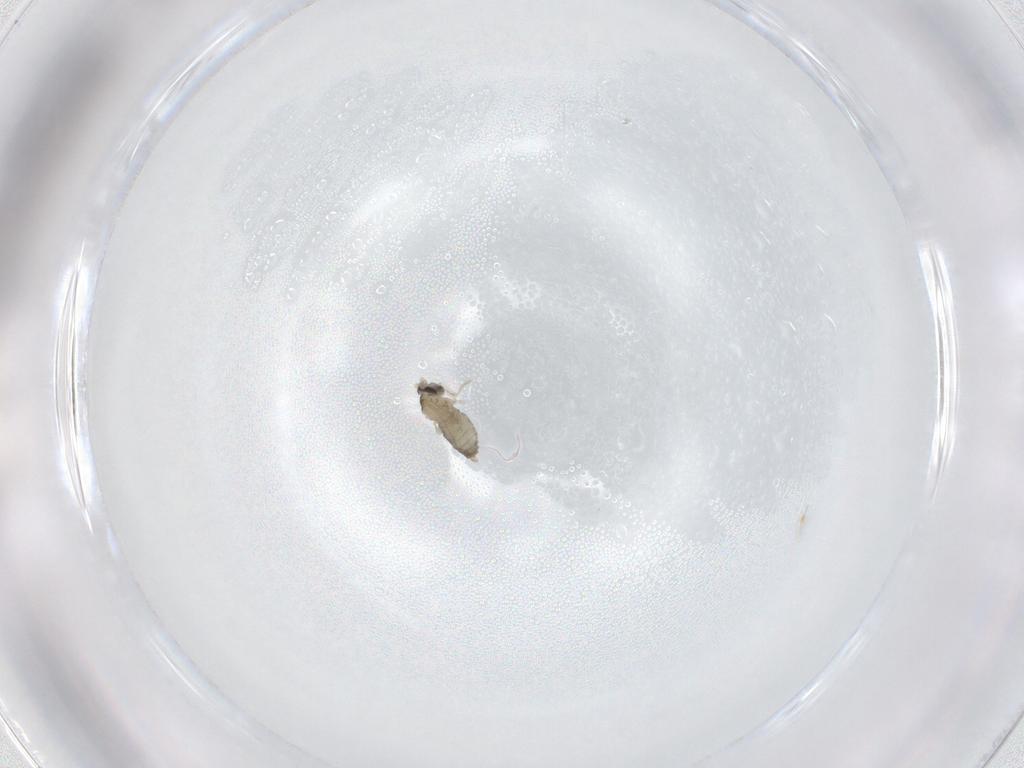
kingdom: Animalia
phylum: Arthropoda
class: Insecta
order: Diptera
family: Cecidomyiidae
